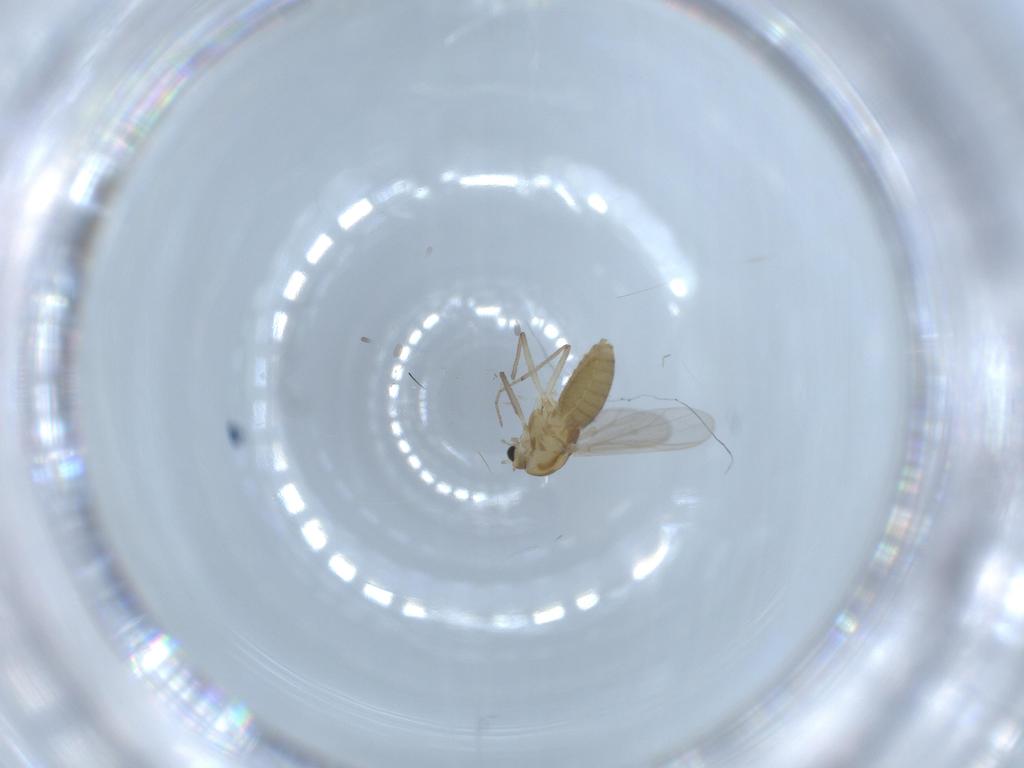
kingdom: Animalia
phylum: Arthropoda
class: Insecta
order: Diptera
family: Chironomidae
